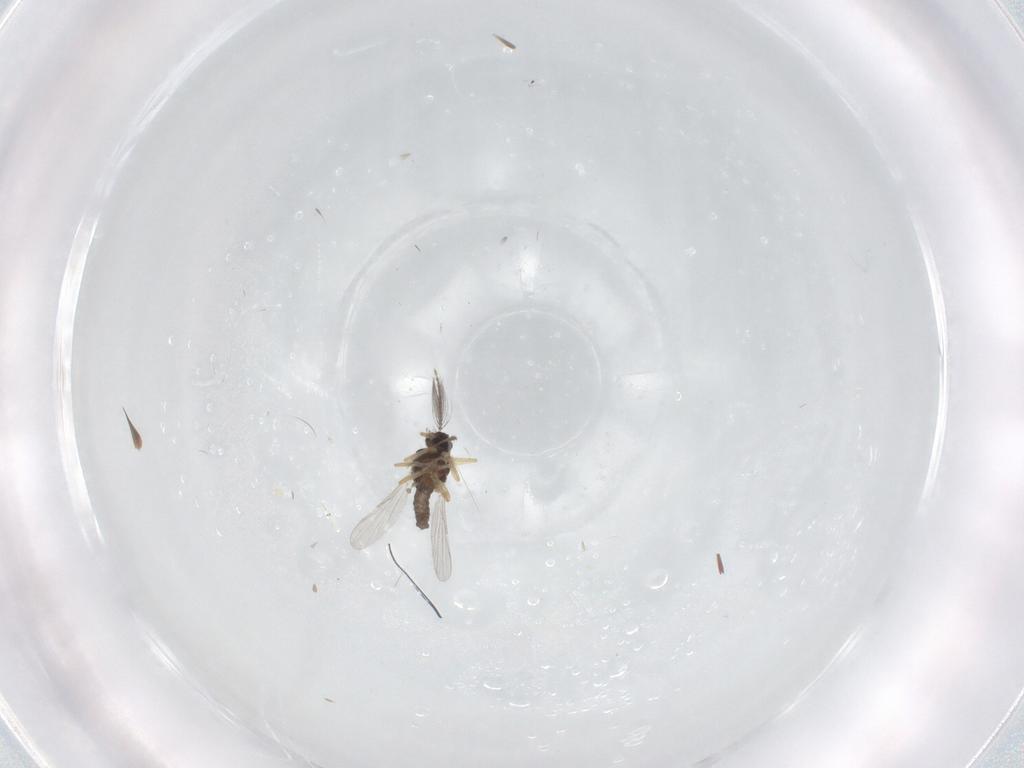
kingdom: Animalia
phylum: Arthropoda
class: Insecta
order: Diptera
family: Ceratopogonidae
